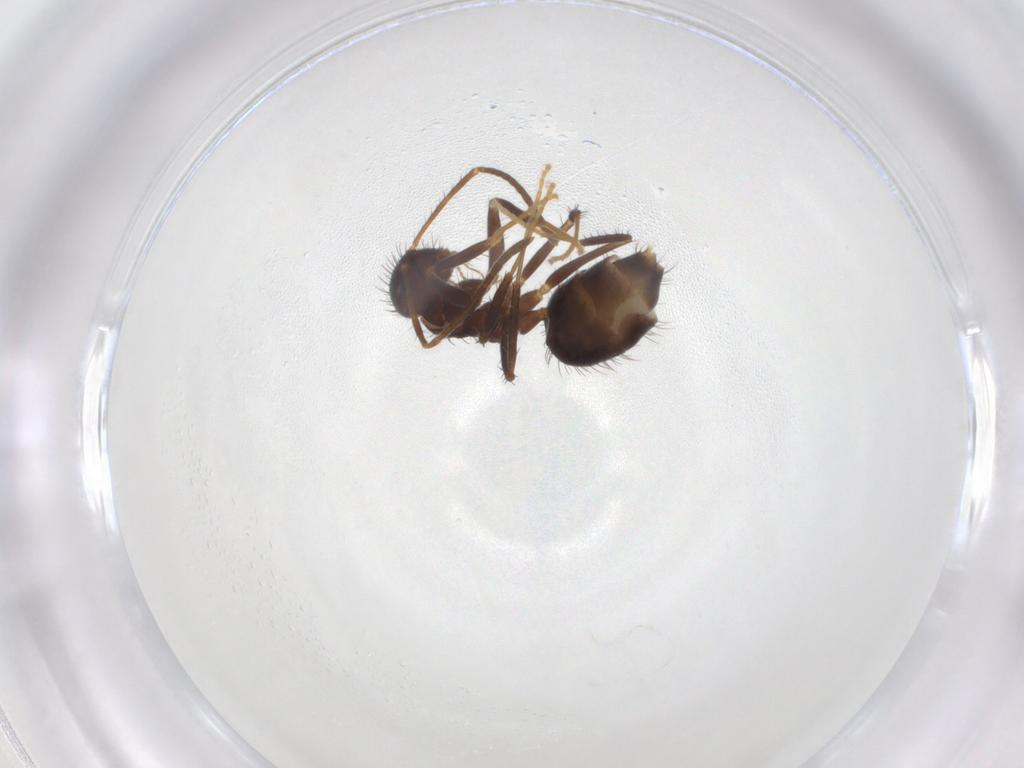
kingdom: Animalia
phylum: Arthropoda
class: Insecta
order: Hymenoptera
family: Formicidae
